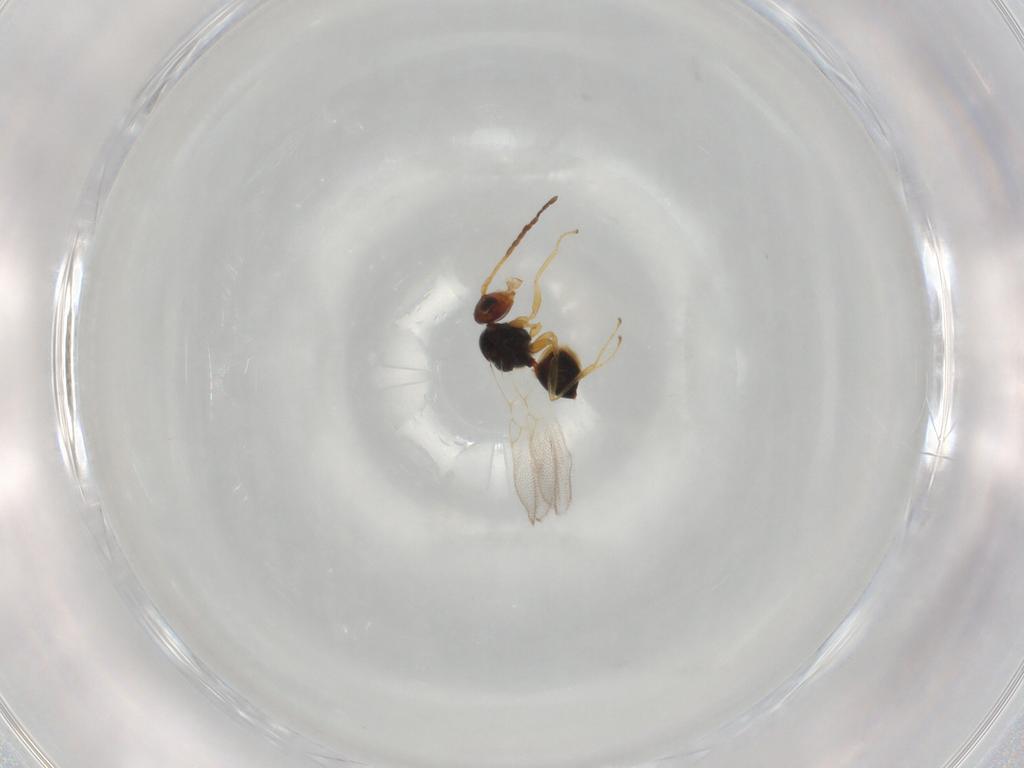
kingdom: Animalia
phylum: Arthropoda
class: Insecta
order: Hymenoptera
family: Figitidae
